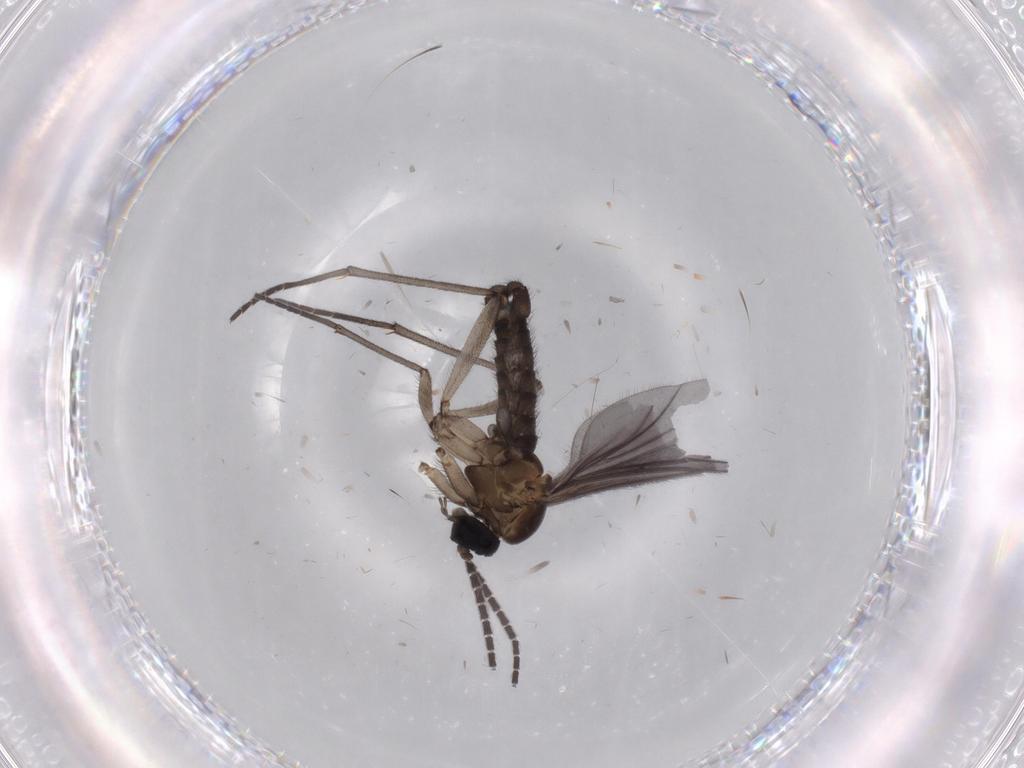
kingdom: Animalia
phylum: Arthropoda
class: Insecta
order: Diptera
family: Sciaridae
